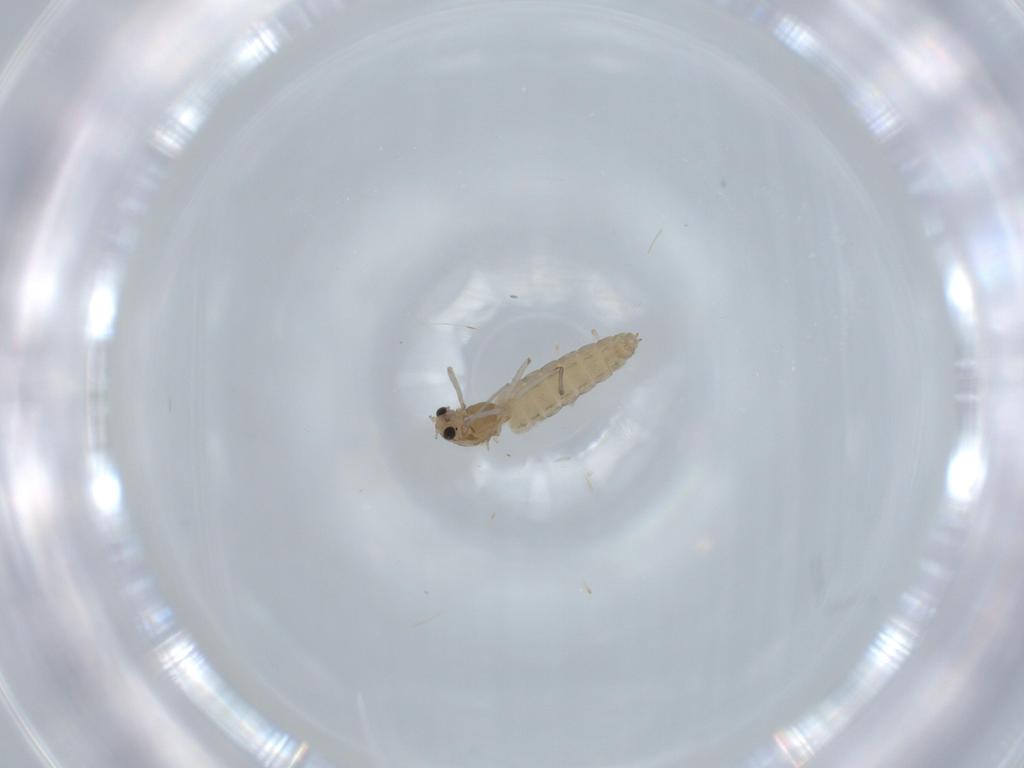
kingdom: Animalia
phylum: Arthropoda
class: Insecta
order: Diptera
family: Chironomidae
